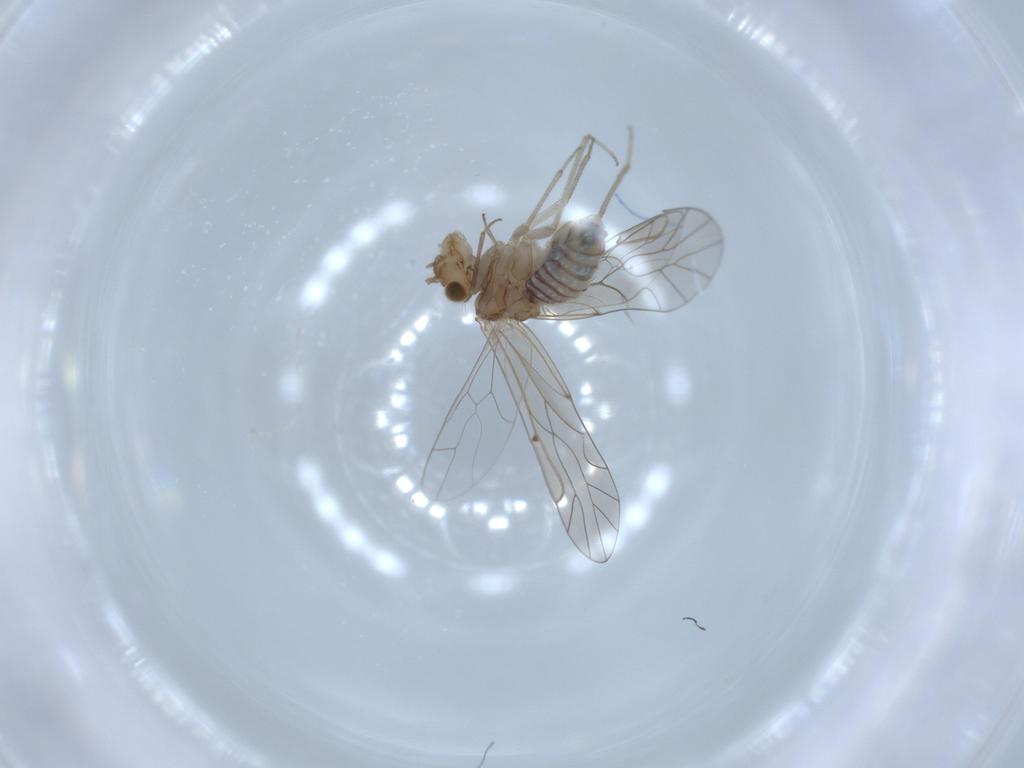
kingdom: Animalia
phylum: Arthropoda
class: Insecta
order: Psocodea
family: Lachesillidae
